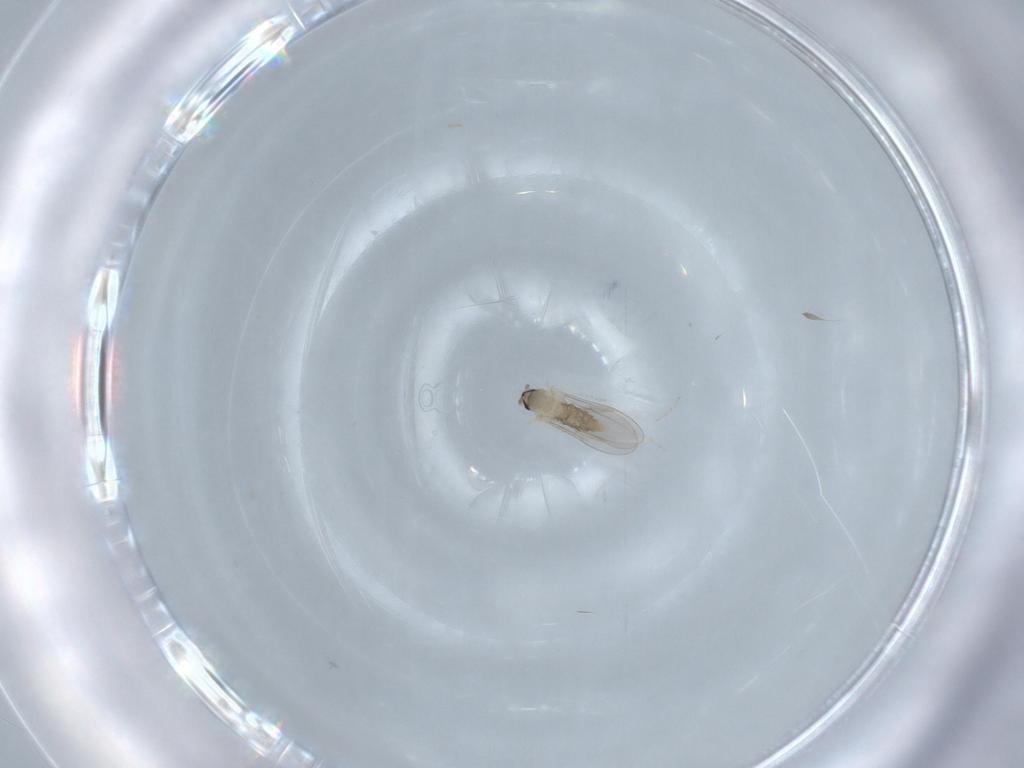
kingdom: Animalia
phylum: Arthropoda
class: Insecta
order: Diptera
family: Cecidomyiidae
